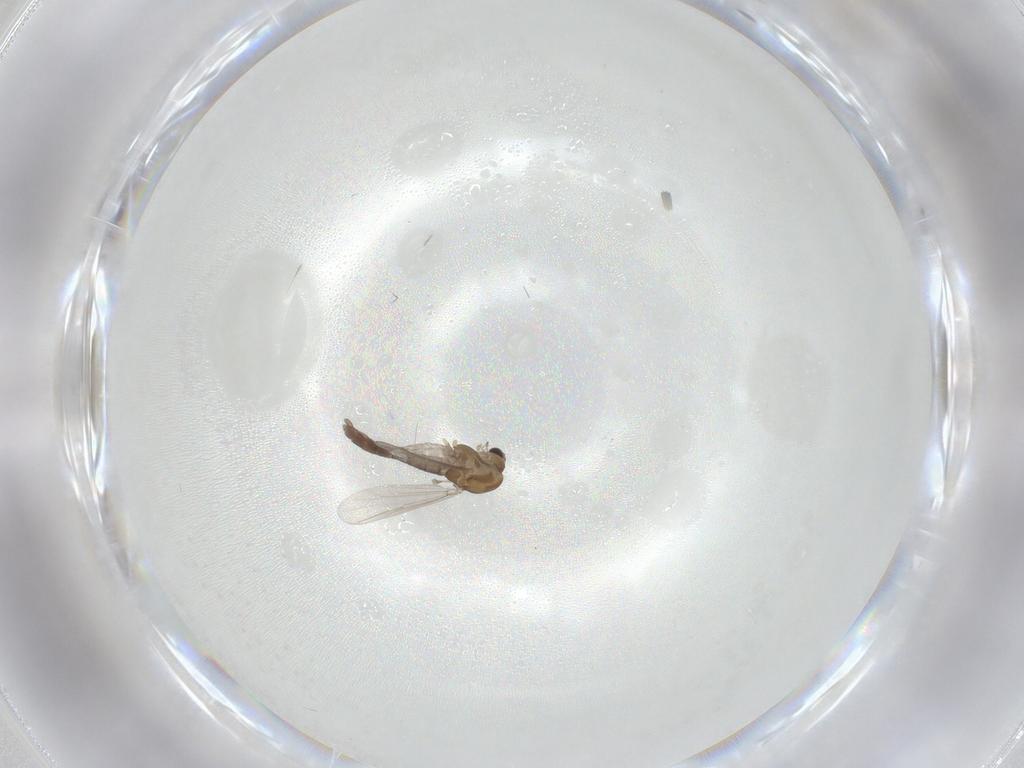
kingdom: Animalia
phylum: Arthropoda
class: Insecta
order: Diptera
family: Chironomidae
